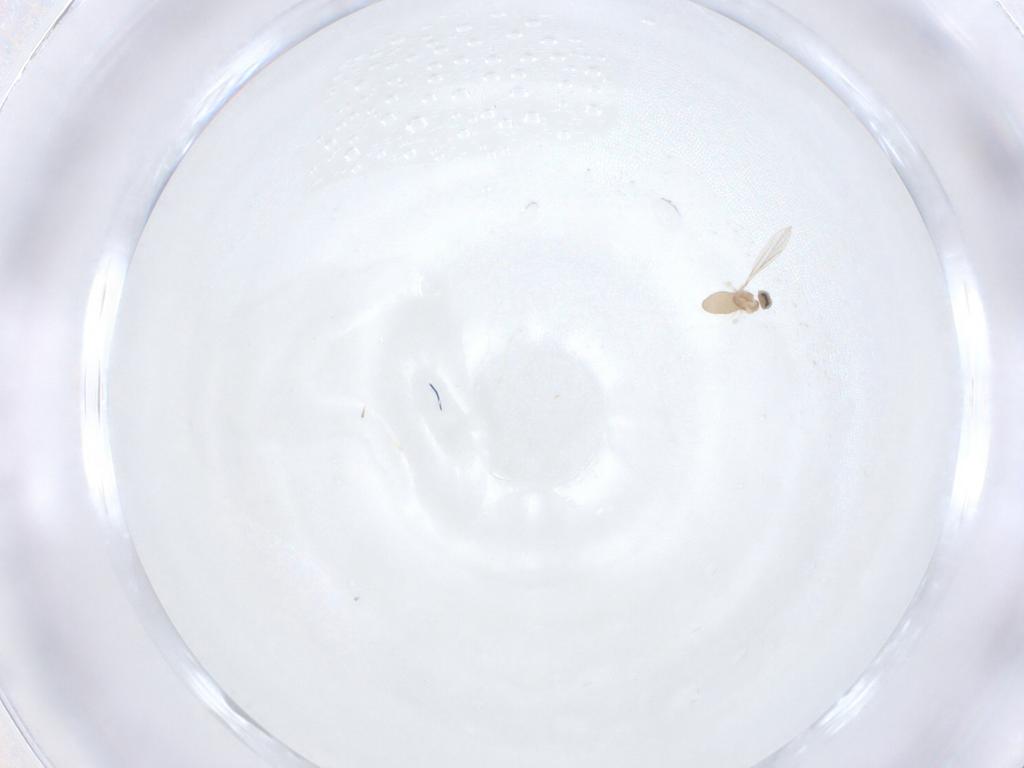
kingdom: Animalia
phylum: Arthropoda
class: Insecta
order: Diptera
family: Cecidomyiidae
